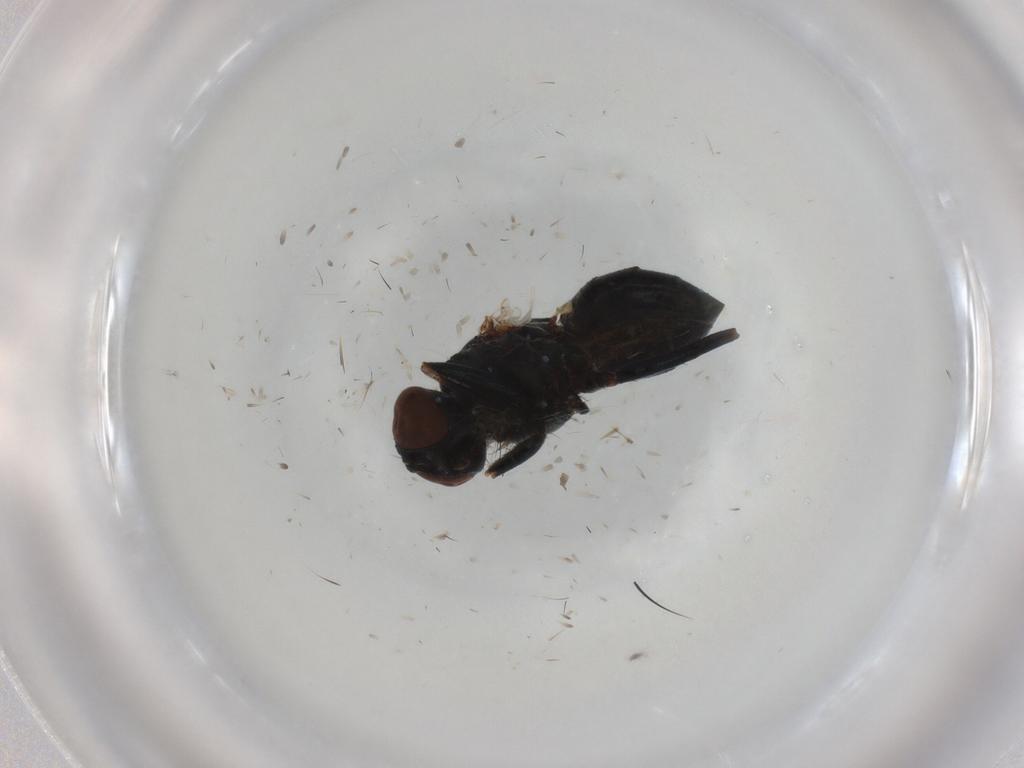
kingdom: Animalia
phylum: Arthropoda
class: Insecta
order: Diptera
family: Muscidae
